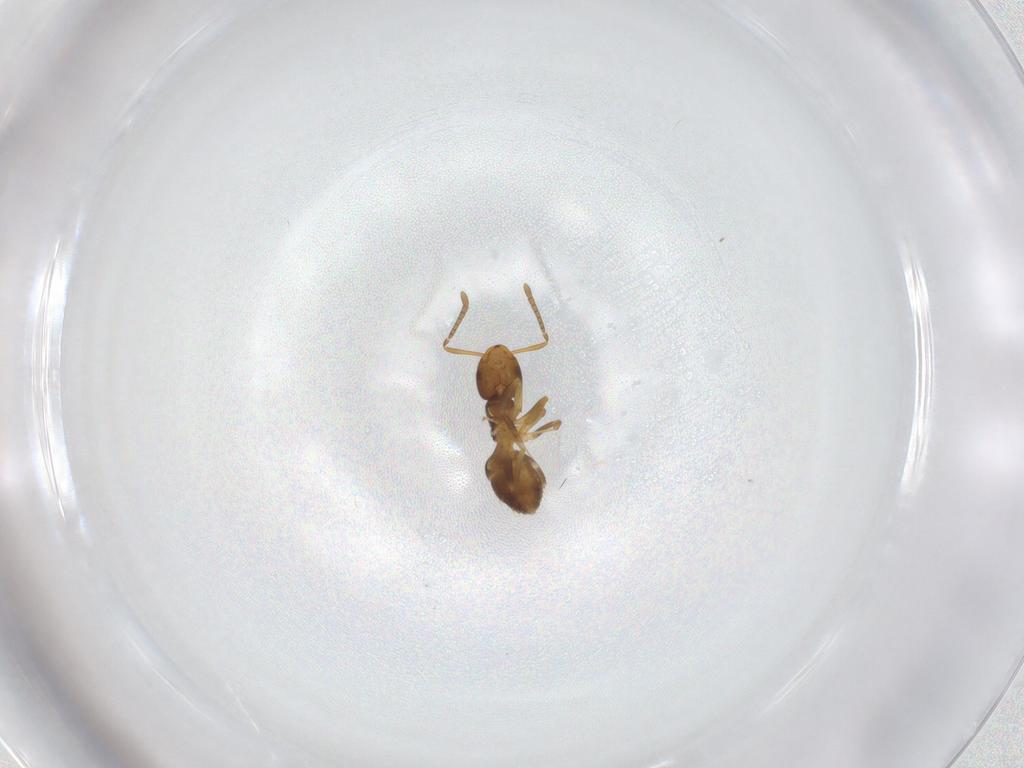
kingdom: Animalia
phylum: Arthropoda
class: Insecta
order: Hymenoptera
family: Formicidae
